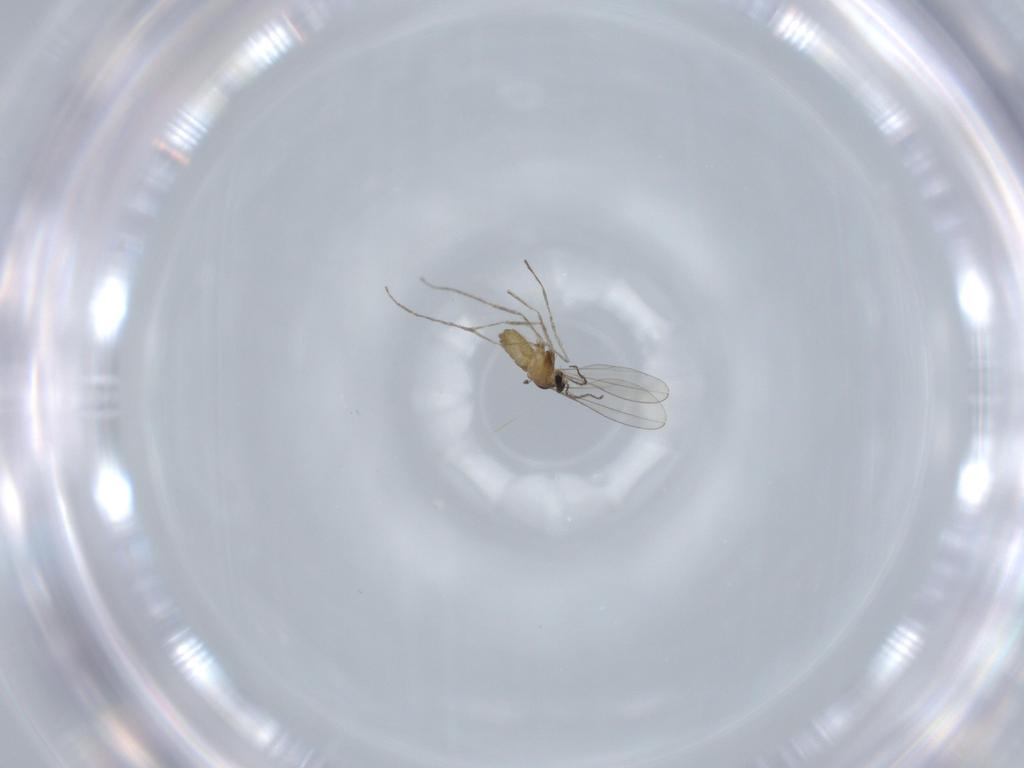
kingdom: Animalia
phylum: Arthropoda
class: Insecta
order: Diptera
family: Cecidomyiidae
